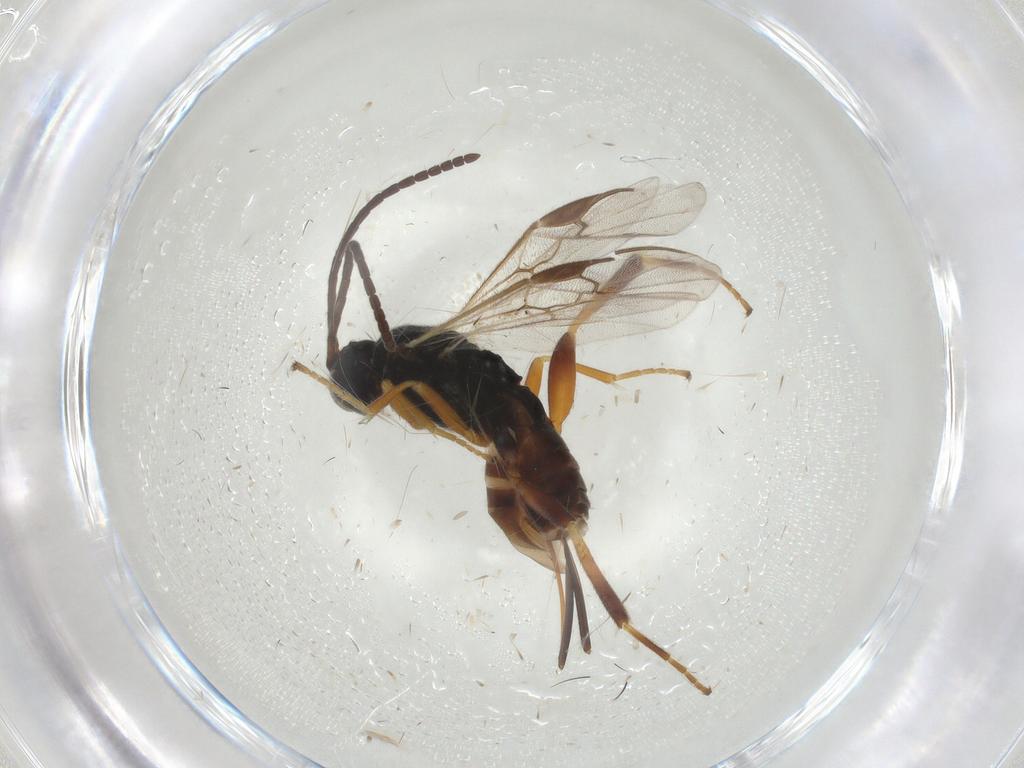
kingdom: Animalia
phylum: Arthropoda
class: Insecta
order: Hymenoptera
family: Braconidae
